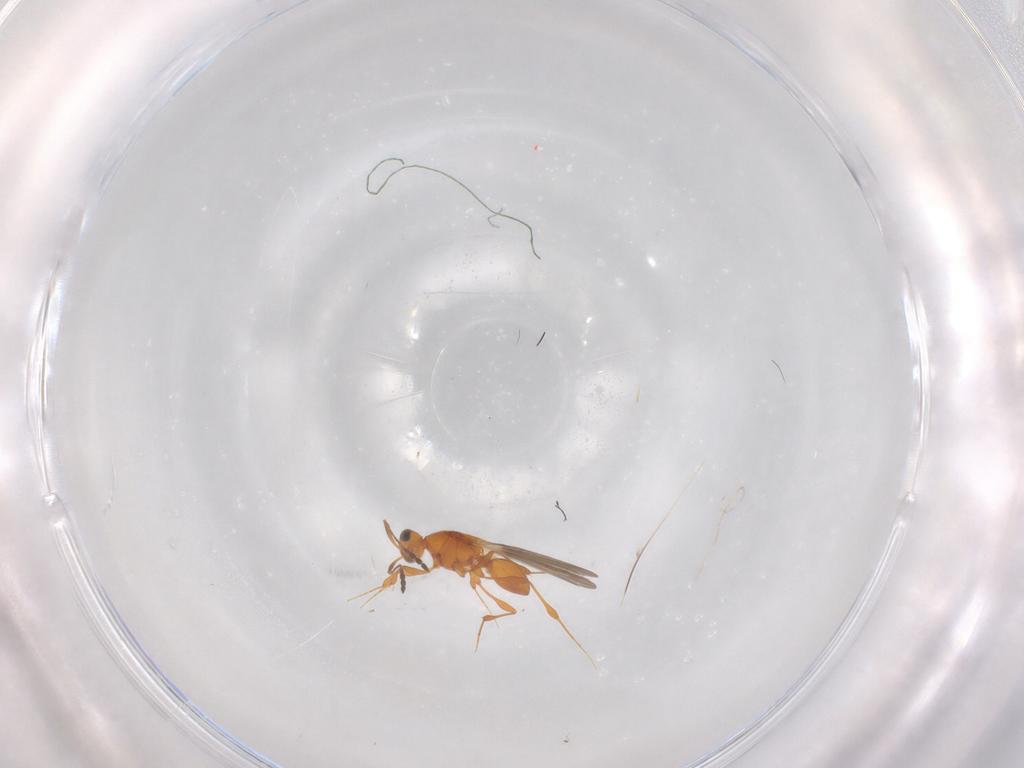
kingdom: Animalia
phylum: Arthropoda
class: Insecta
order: Hymenoptera
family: Platygastridae
